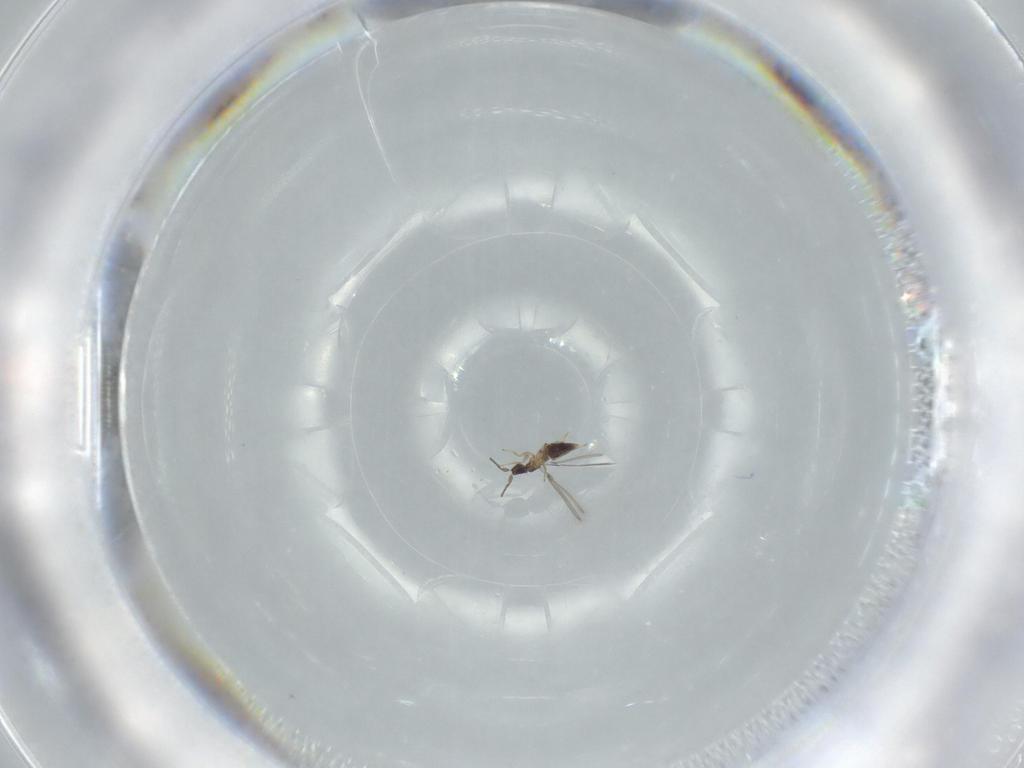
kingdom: Animalia
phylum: Arthropoda
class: Insecta
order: Hymenoptera
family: Mymaridae
